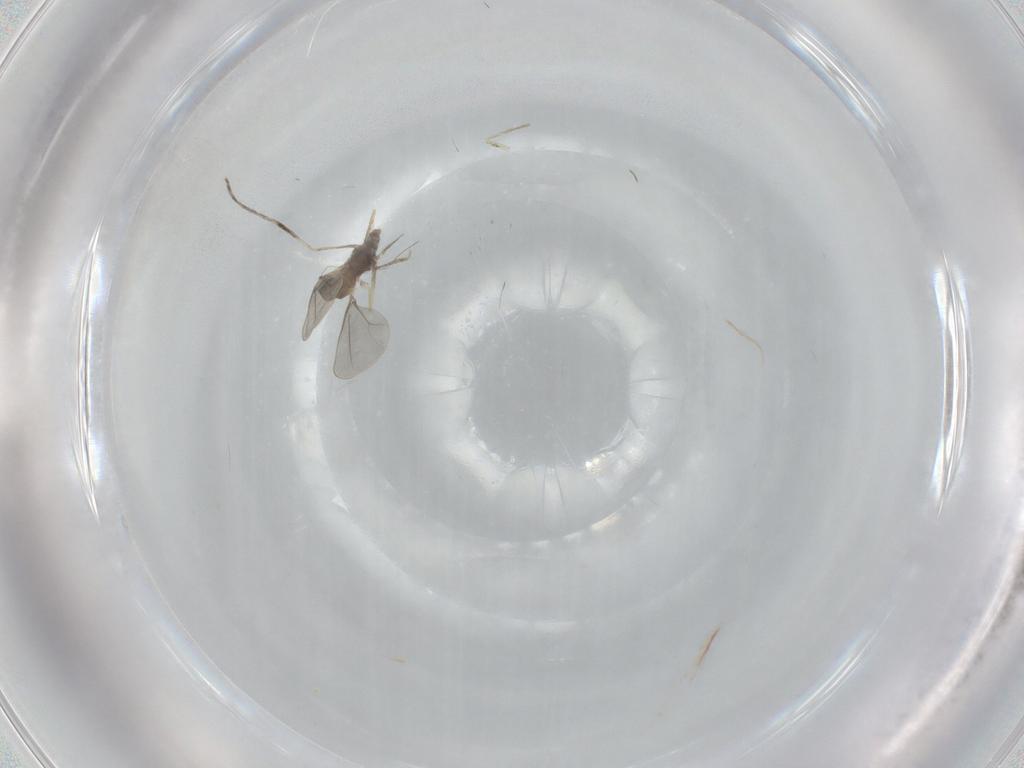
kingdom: Animalia
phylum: Arthropoda
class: Insecta
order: Diptera
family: Cecidomyiidae
